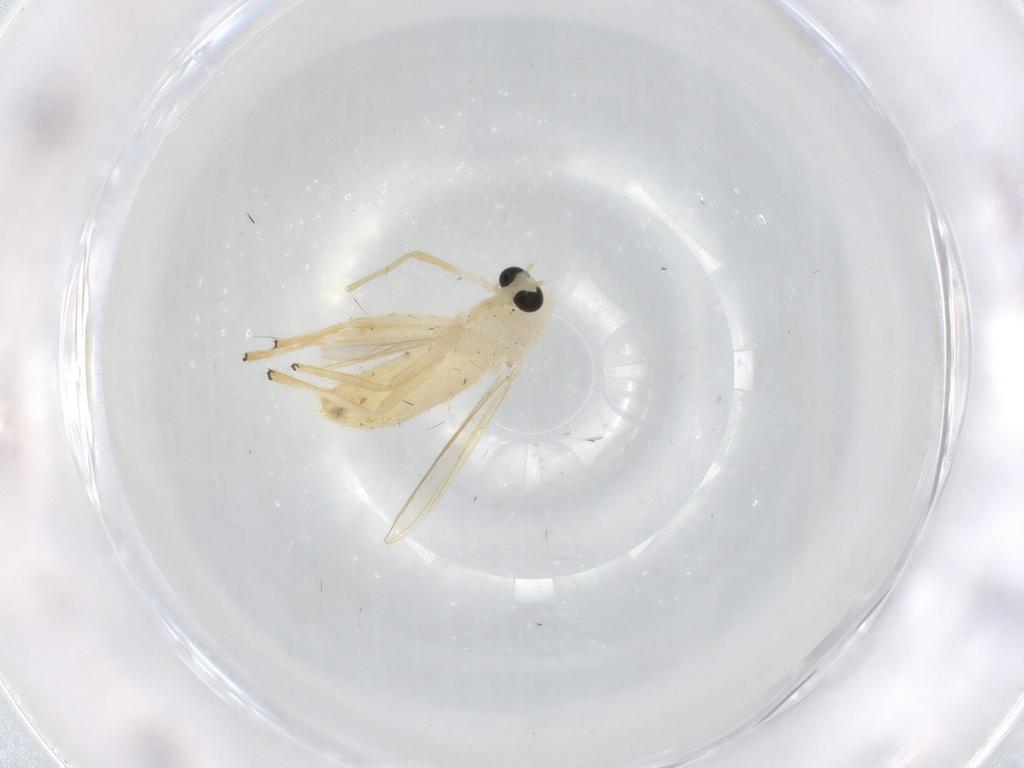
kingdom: Animalia
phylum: Arthropoda
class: Insecta
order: Diptera
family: Chironomidae
